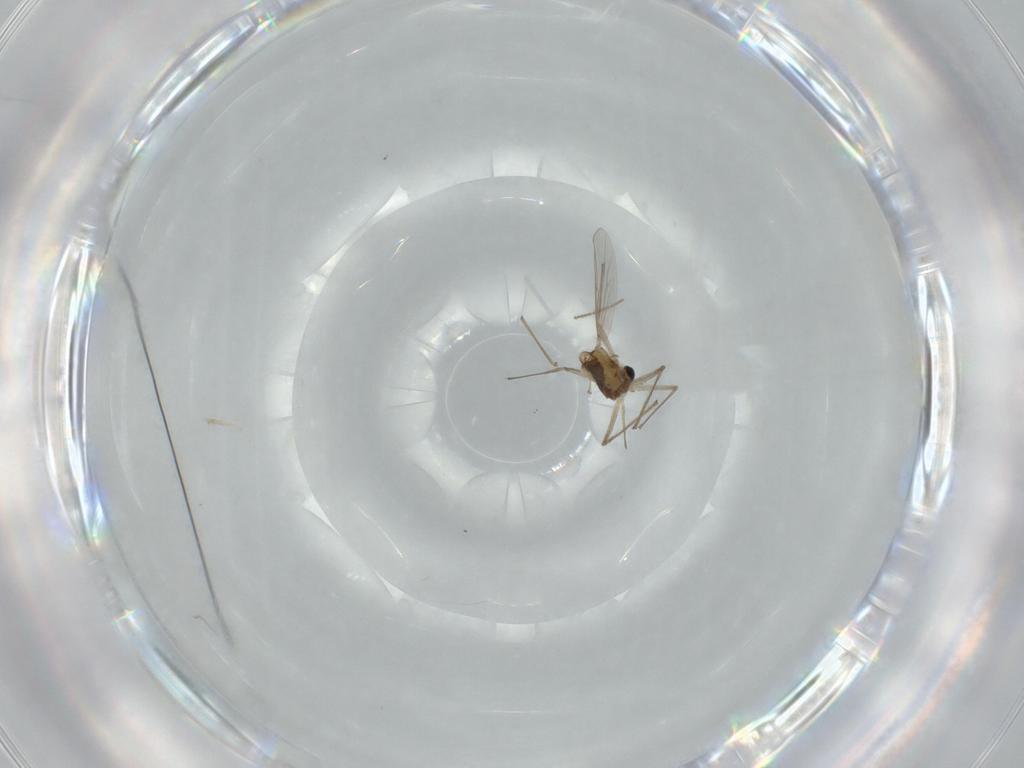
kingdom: Animalia
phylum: Arthropoda
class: Insecta
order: Diptera
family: Chironomidae
